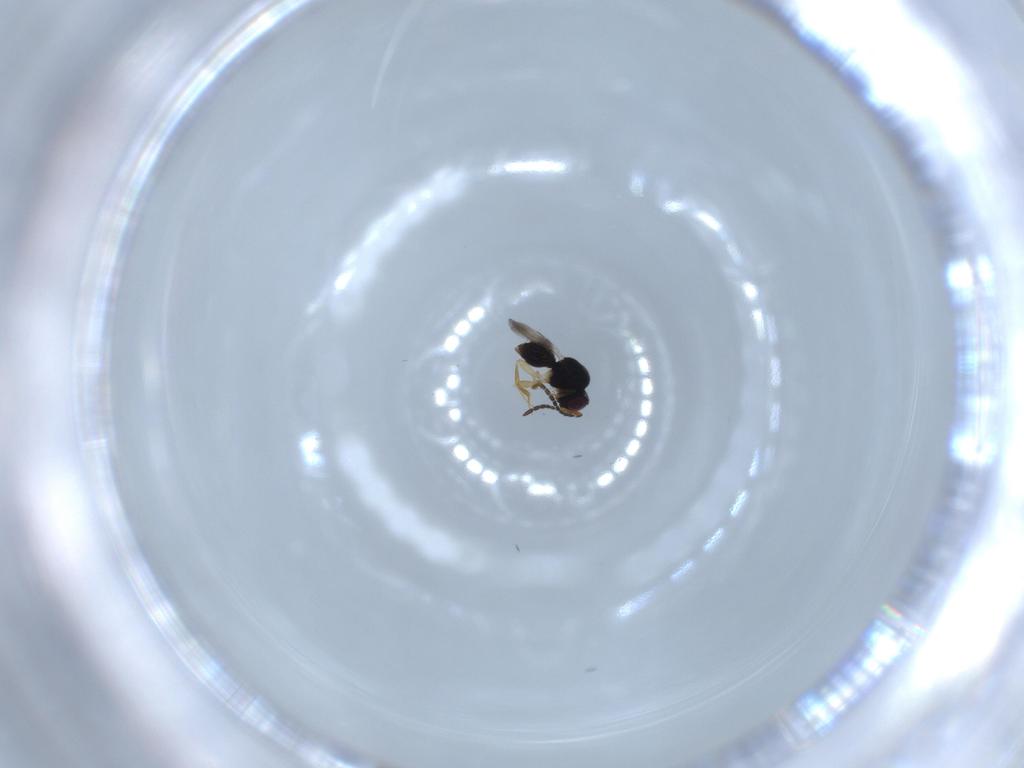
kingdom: Animalia
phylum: Arthropoda
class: Insecta
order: Hymenoptera
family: Ceraphronidae
